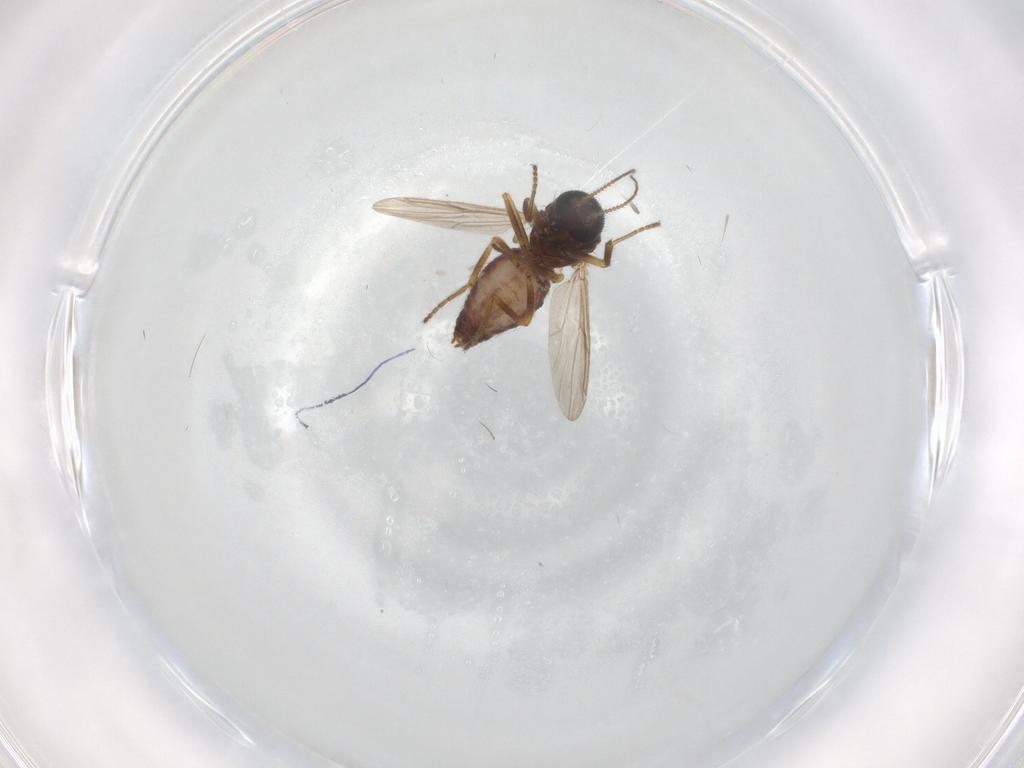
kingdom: Animalia
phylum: Arthropoda
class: Insecta
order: Diptera
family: Ceratopogonidae
